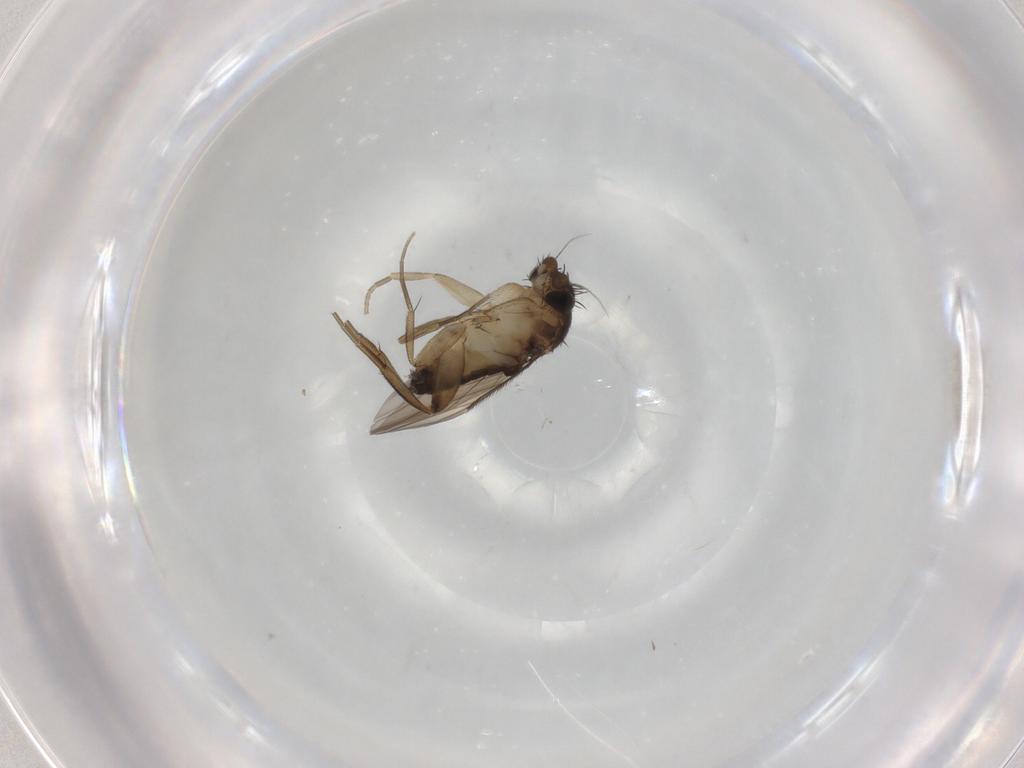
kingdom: Animalia
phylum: Arthropoda
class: Insecta
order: Diptera
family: Phoridae
